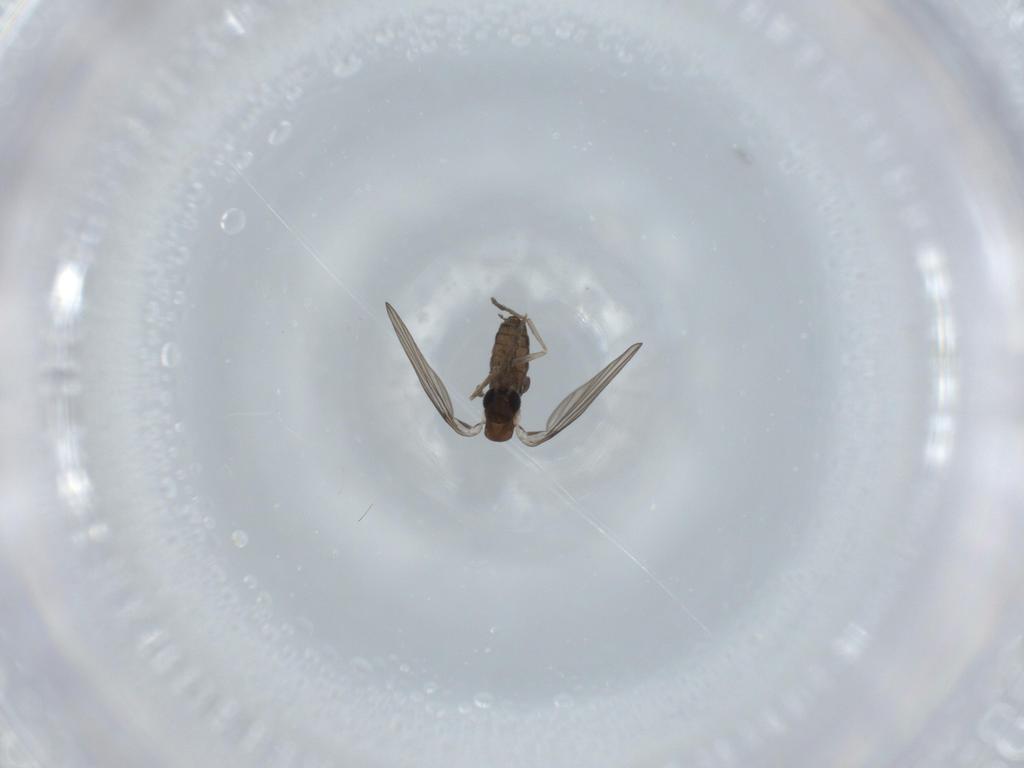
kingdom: Animalia
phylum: Arthropoda
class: Insecta
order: Diptera
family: Psychodidae
